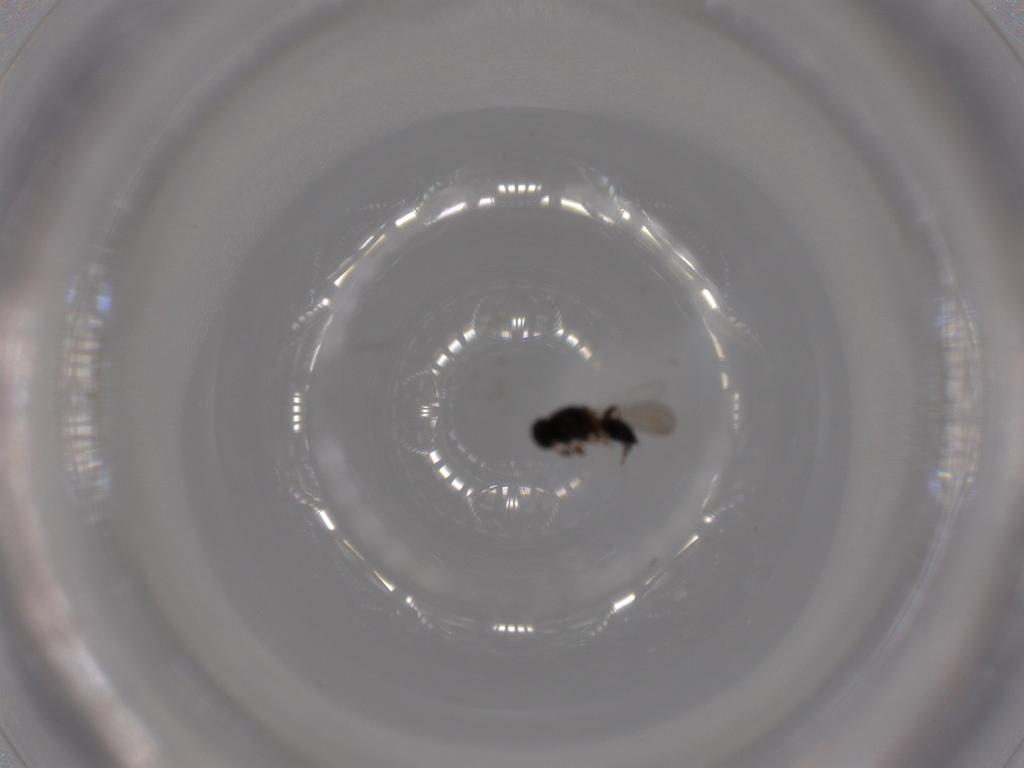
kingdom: Animalia
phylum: Arthropoda
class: Insecta
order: Hymenoptera
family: Platygastridae
